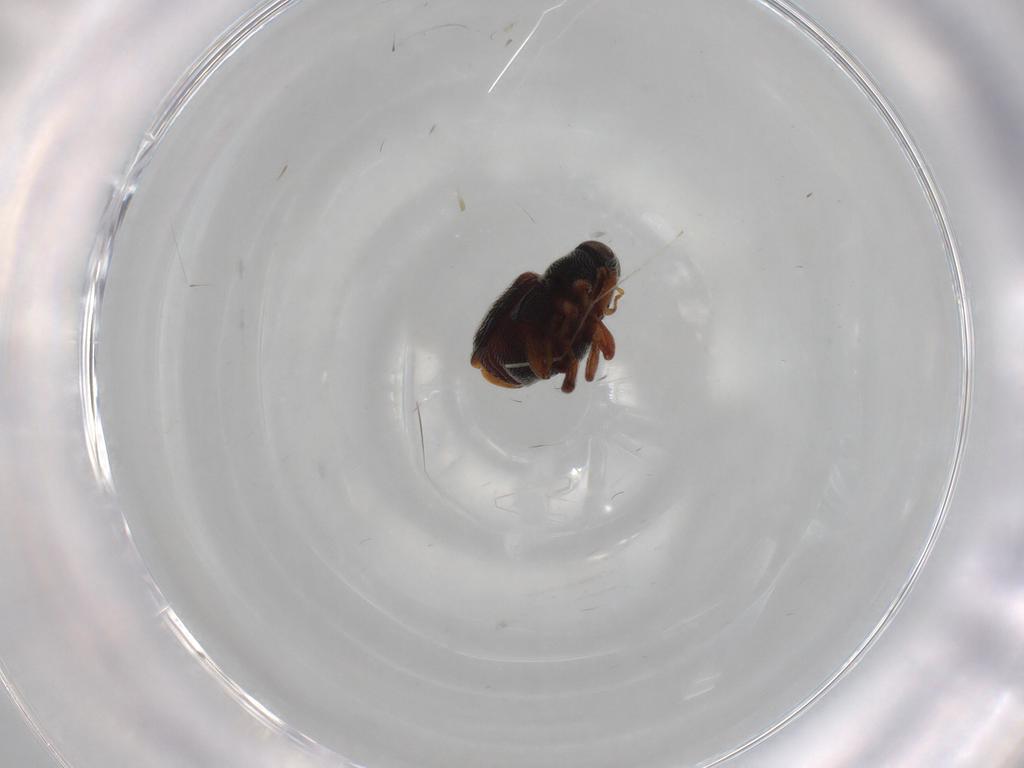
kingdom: Animalia
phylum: Arthropoda
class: Insecta
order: Coleoptera
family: Curculionidae
